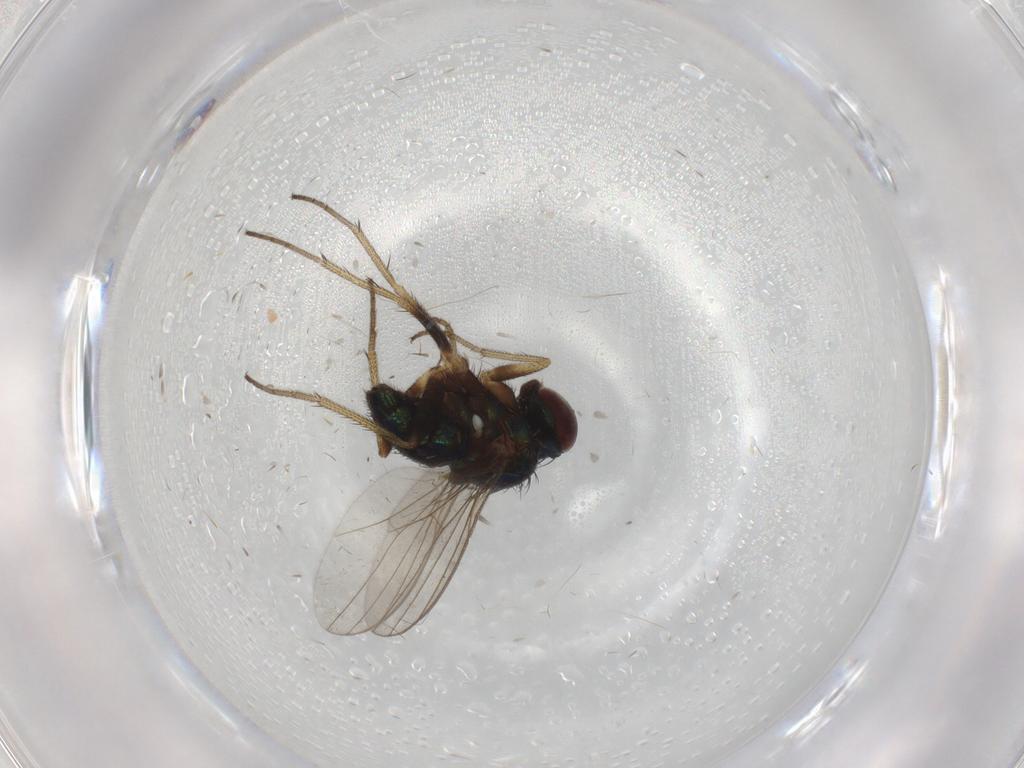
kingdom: Animalia
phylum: Arthropoda
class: Insecta
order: Diptera
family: Dolichopodidae
